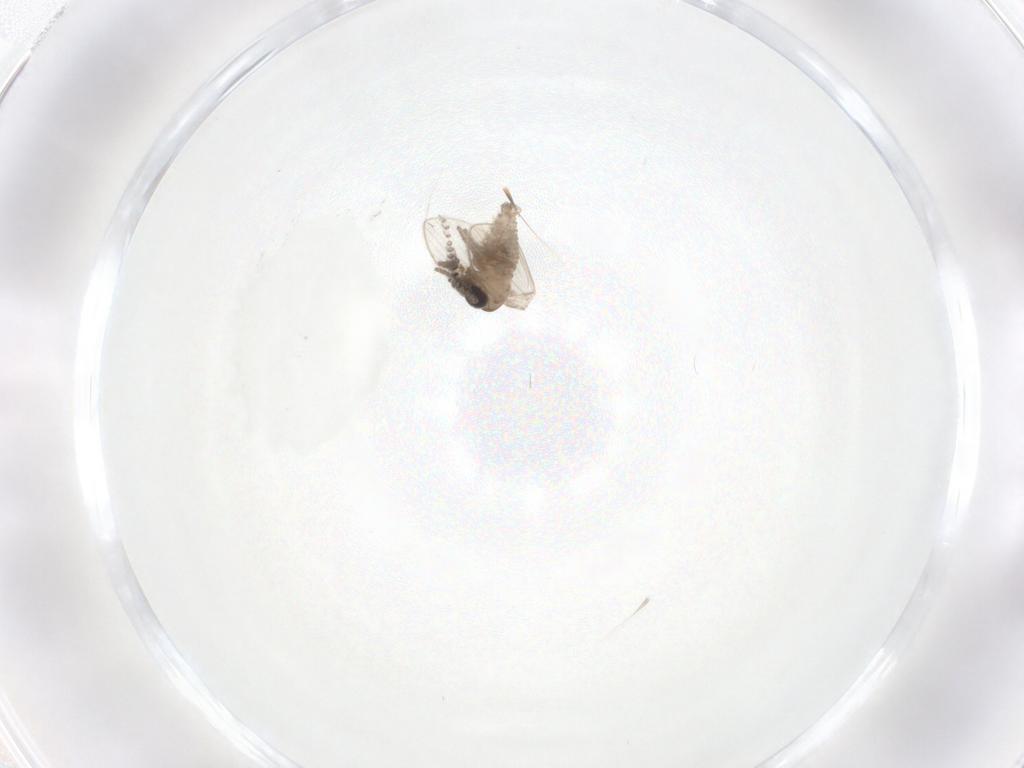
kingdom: Animalia
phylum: Arthropoda
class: Insecta
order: Diptera
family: Psychodidae
